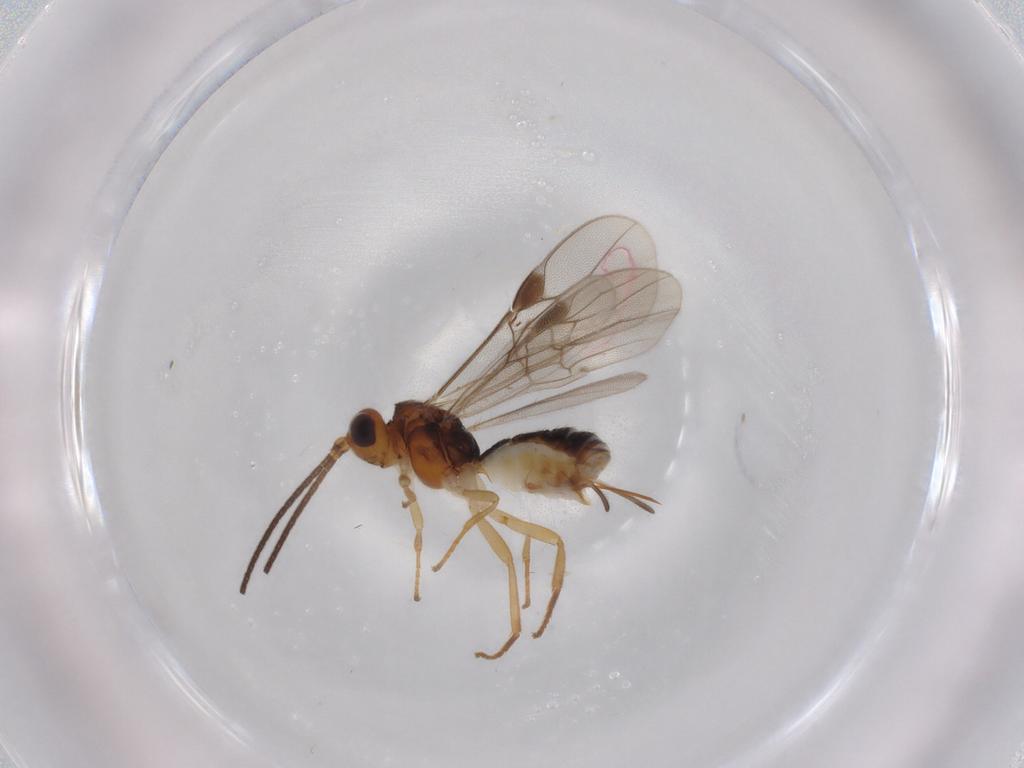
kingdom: Animalia
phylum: Arthropoda
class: Insecta
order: Hymenoptera
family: Braconidae
